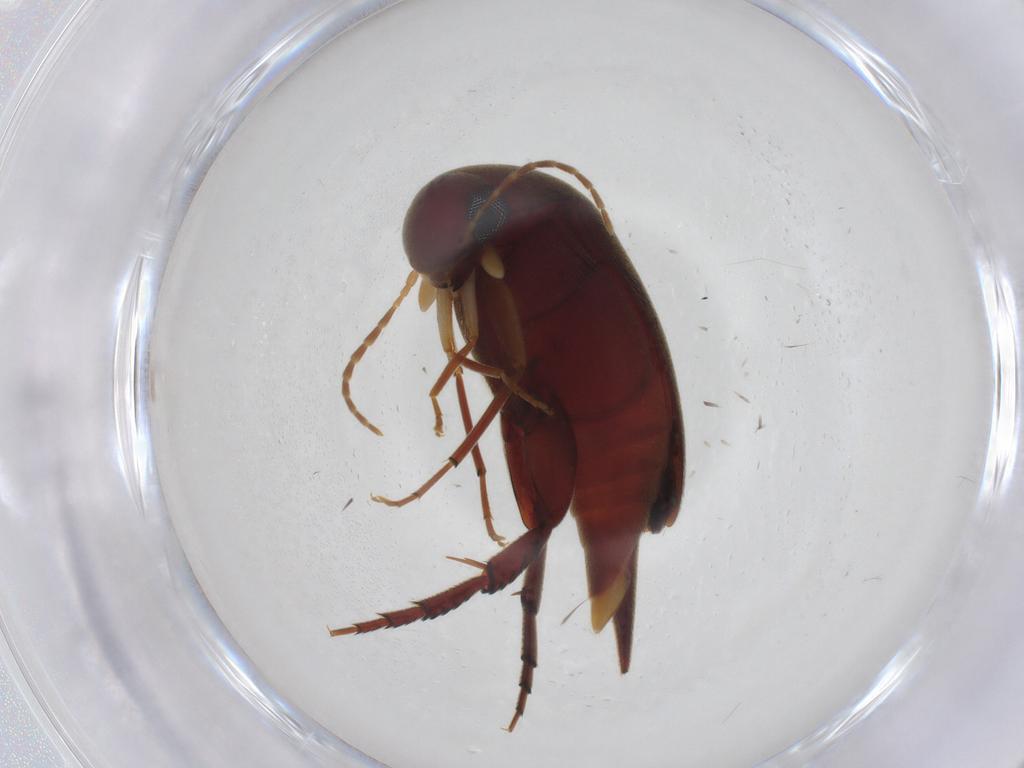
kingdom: Animalia
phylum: Arthropoda
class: Insecta
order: Coleoptera
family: Mordellidae
